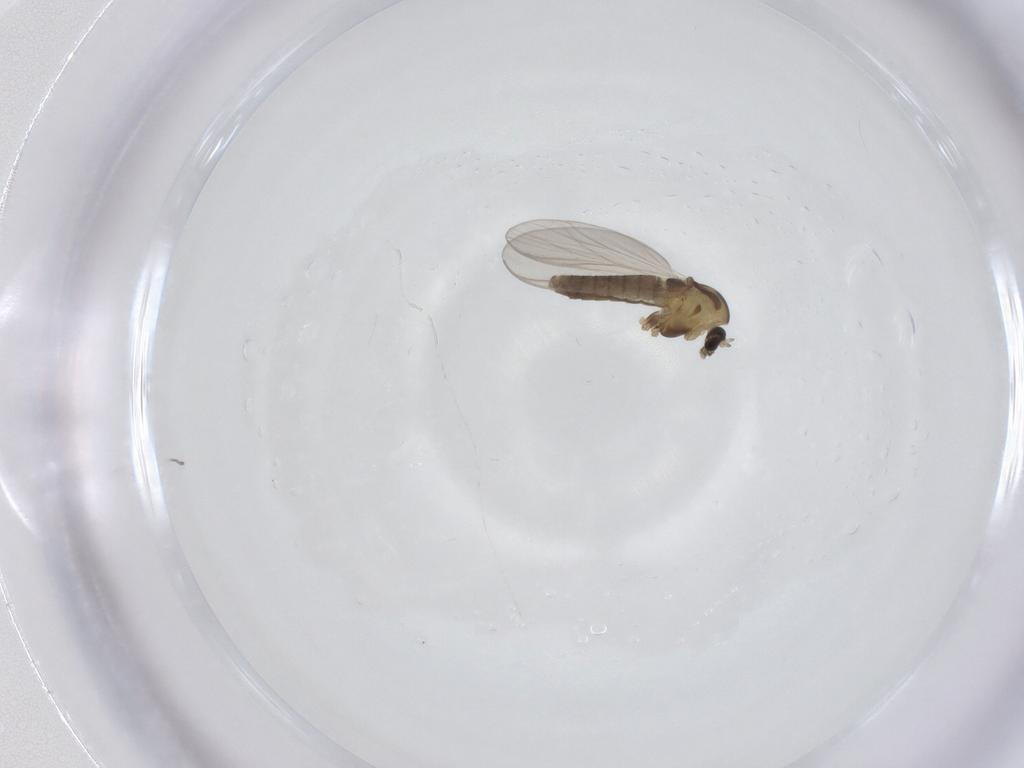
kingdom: Animalia
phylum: Arthropoda
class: Insecta
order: Diptera
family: Chironomidae
